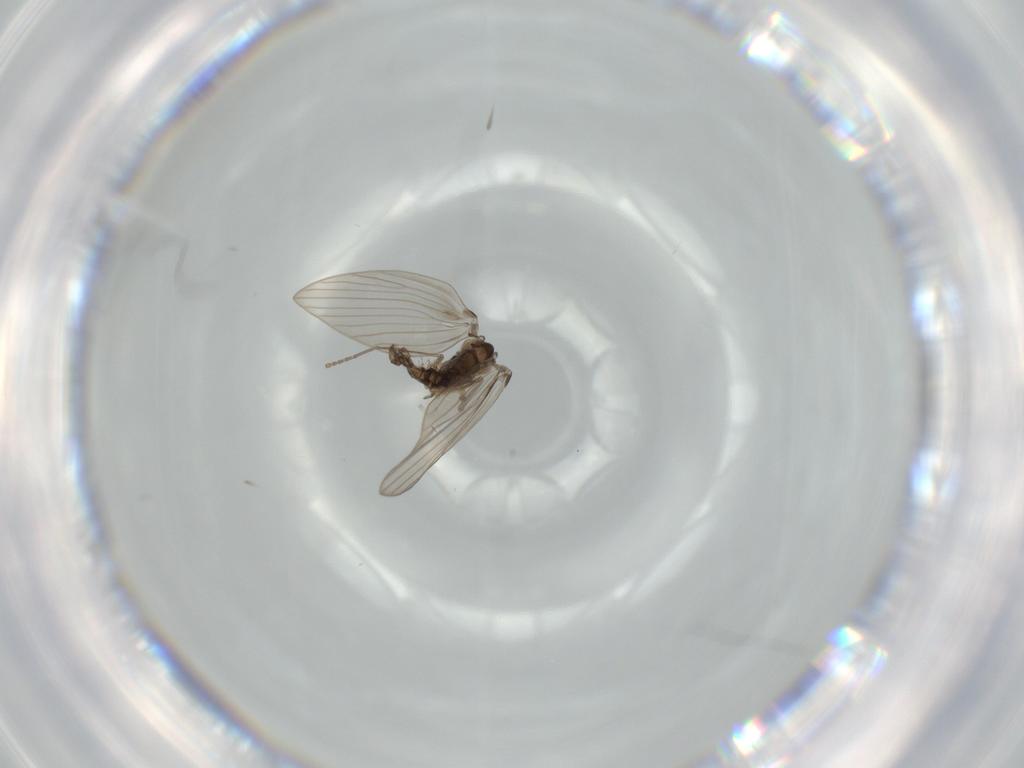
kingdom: Animalia
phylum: Arthropoda
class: Insecta
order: Diptera
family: Psychodidae
